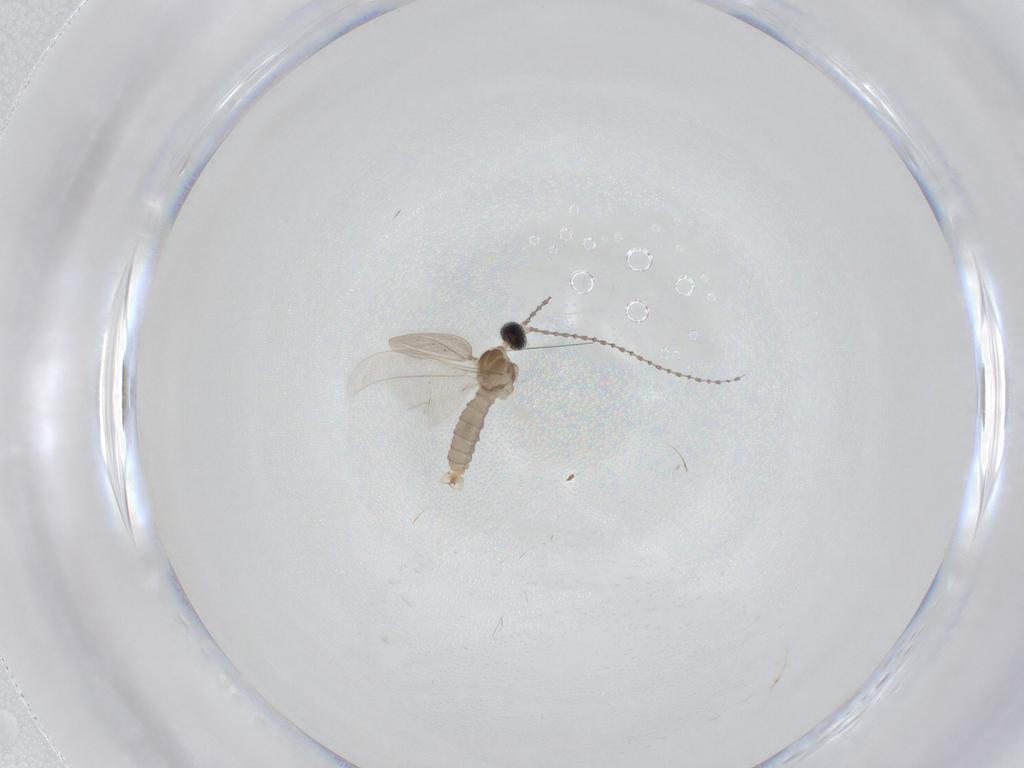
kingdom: Animalia
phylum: Arthropoda
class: Insecta
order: Diptera
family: Cecidomyiidae
